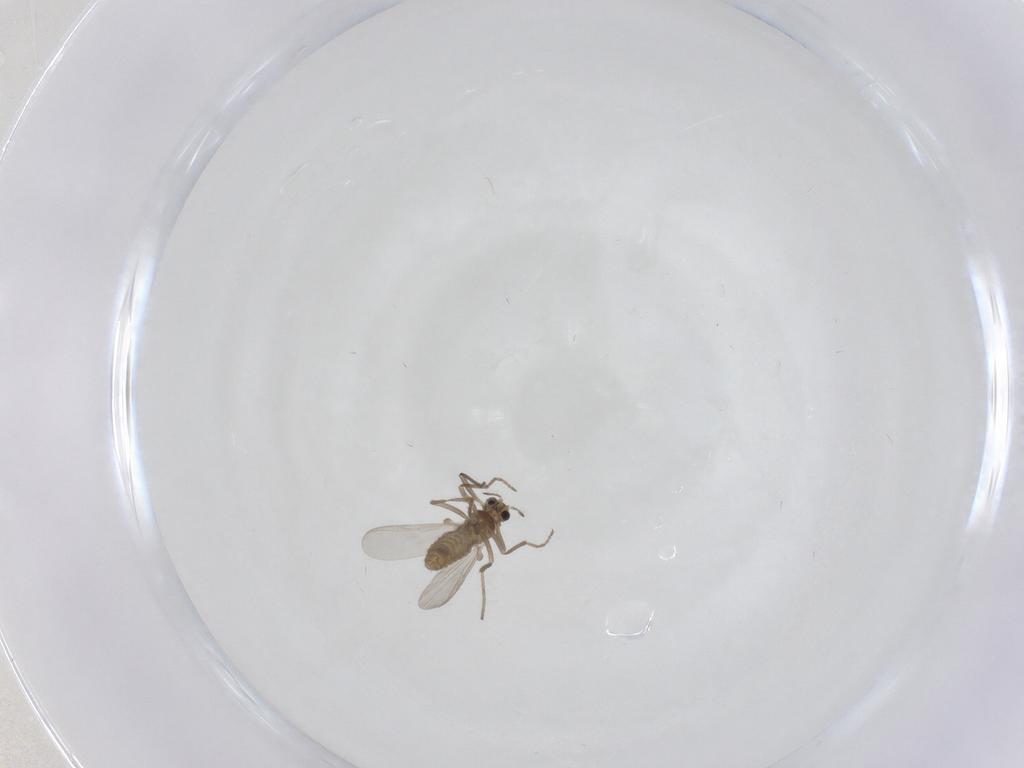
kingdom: Animalia
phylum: Arthropoda
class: Insecta
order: Diptera
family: Chironomidae
